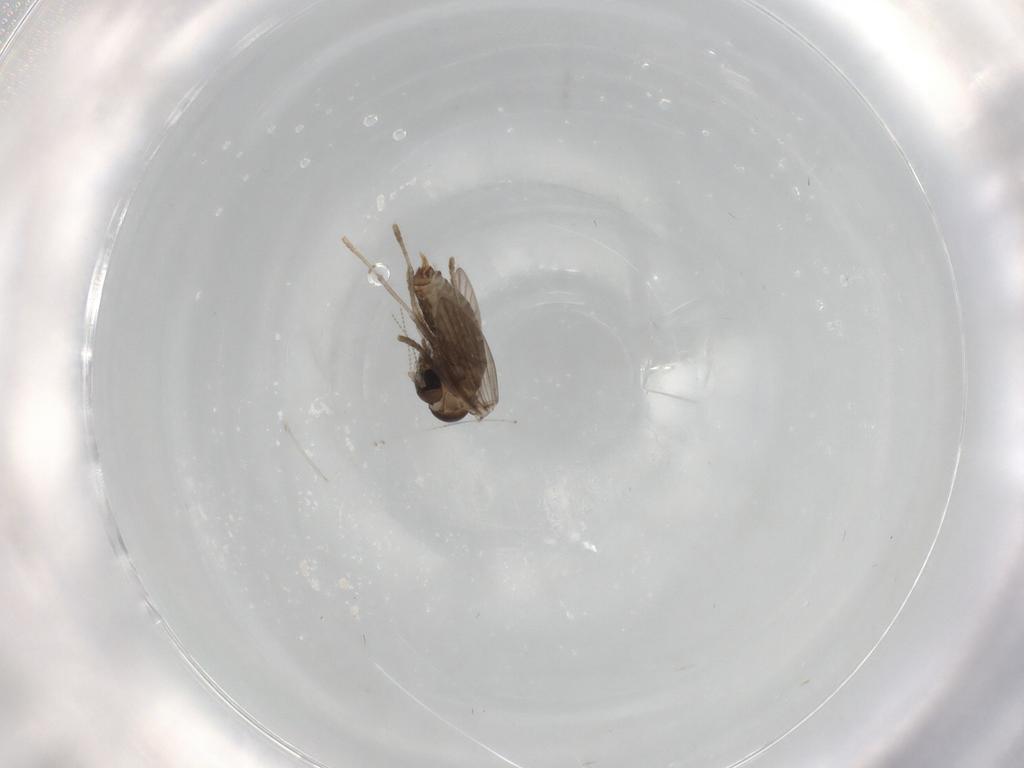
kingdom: Animalia
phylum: Arthropoda
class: Insecta
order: Diptera
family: Psychodidae
